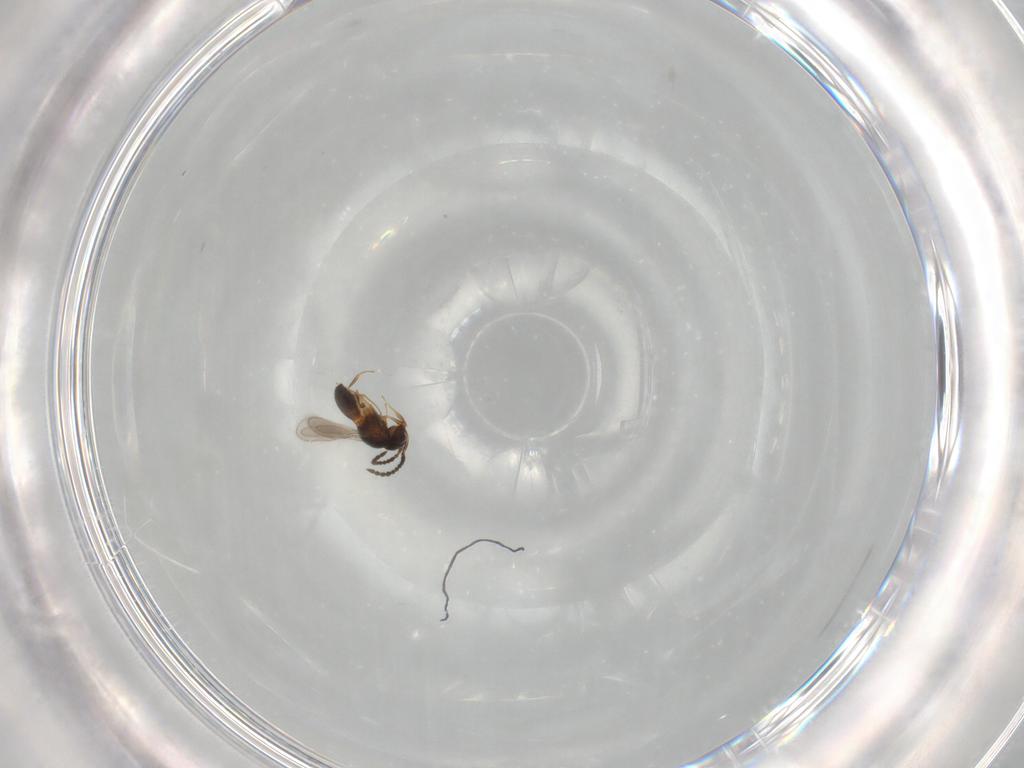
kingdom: Animalia
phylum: Arthropoda
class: Insecta
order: Hymenoptera
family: Scelionidae
